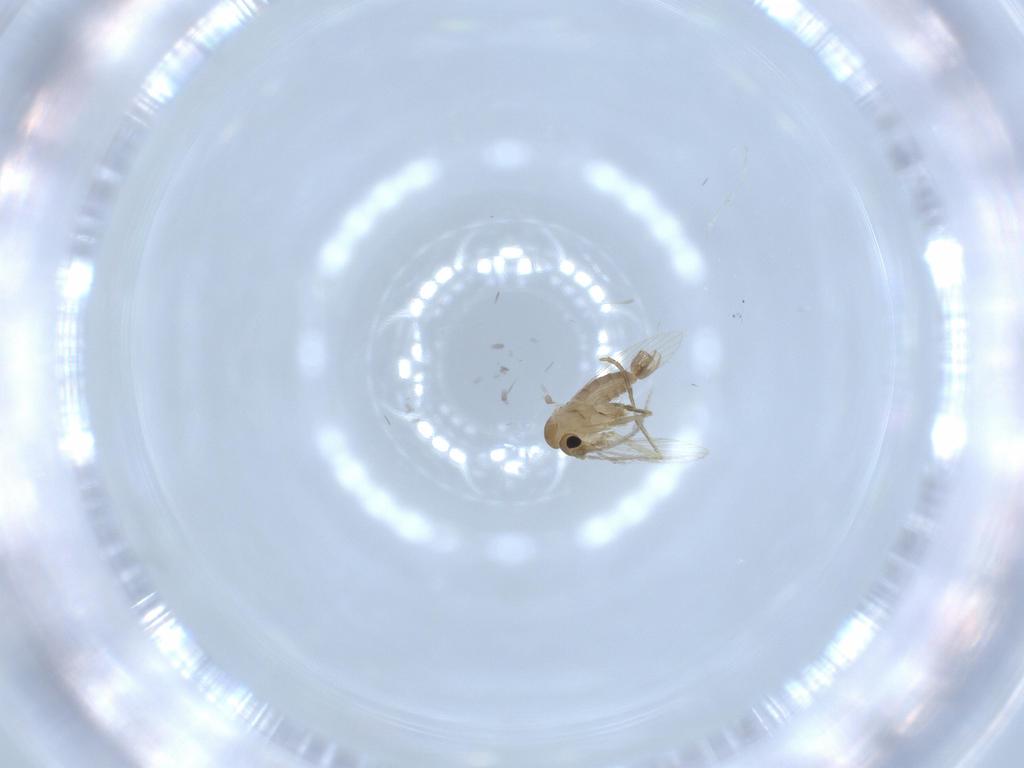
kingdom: Animalia
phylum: Arthropoda
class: Insecta
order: Diptera
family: Psychodidae
